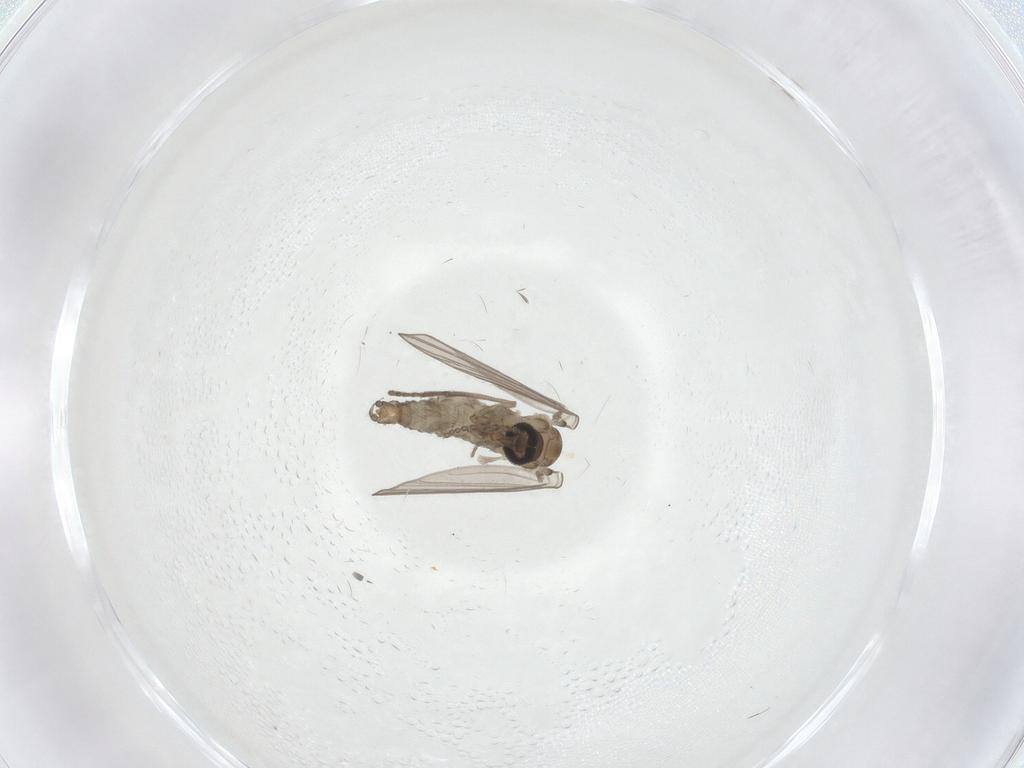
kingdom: Animalia
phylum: Arthropoda
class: Insecta
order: Diptera
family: Psychodidae
